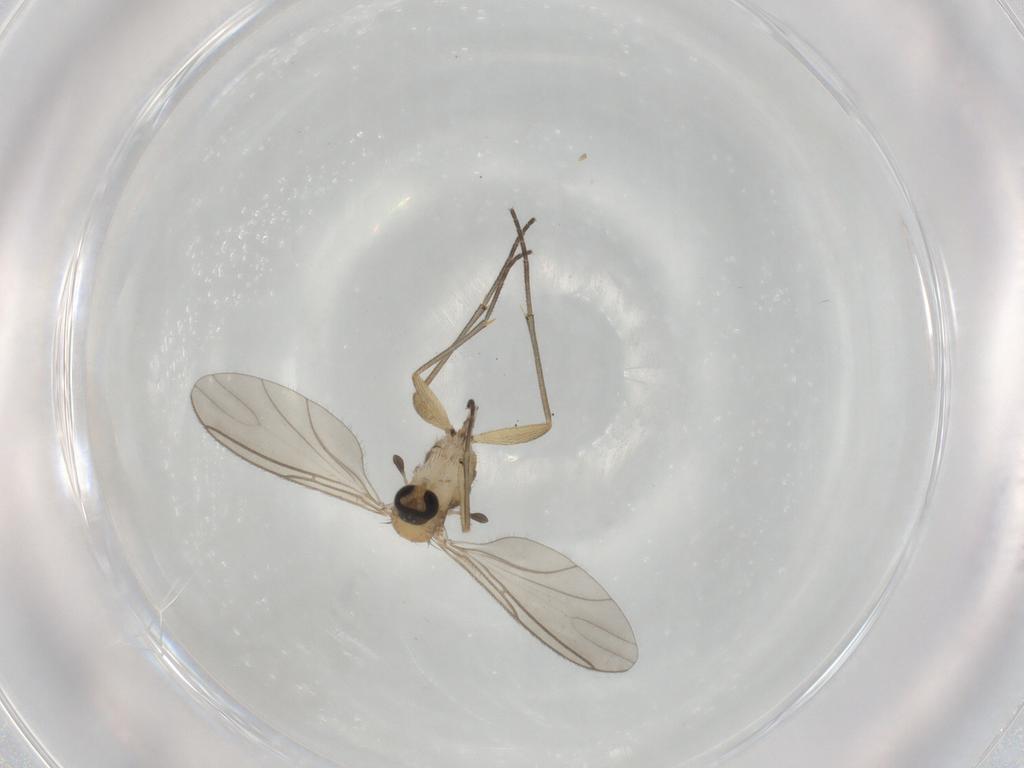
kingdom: Animalia
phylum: Arthropoda
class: Insecta
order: Diptera
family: Sciaridae
